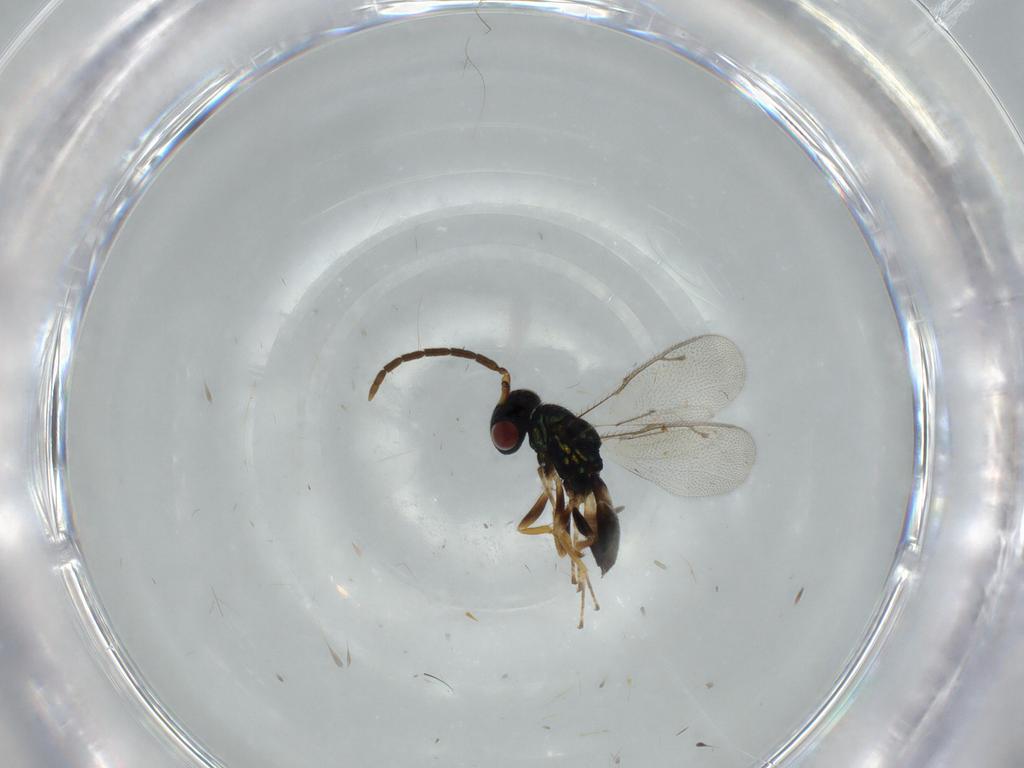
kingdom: Animalia
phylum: Arthropoda
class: Insecta
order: Hymenoptera
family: Pteromalidae
